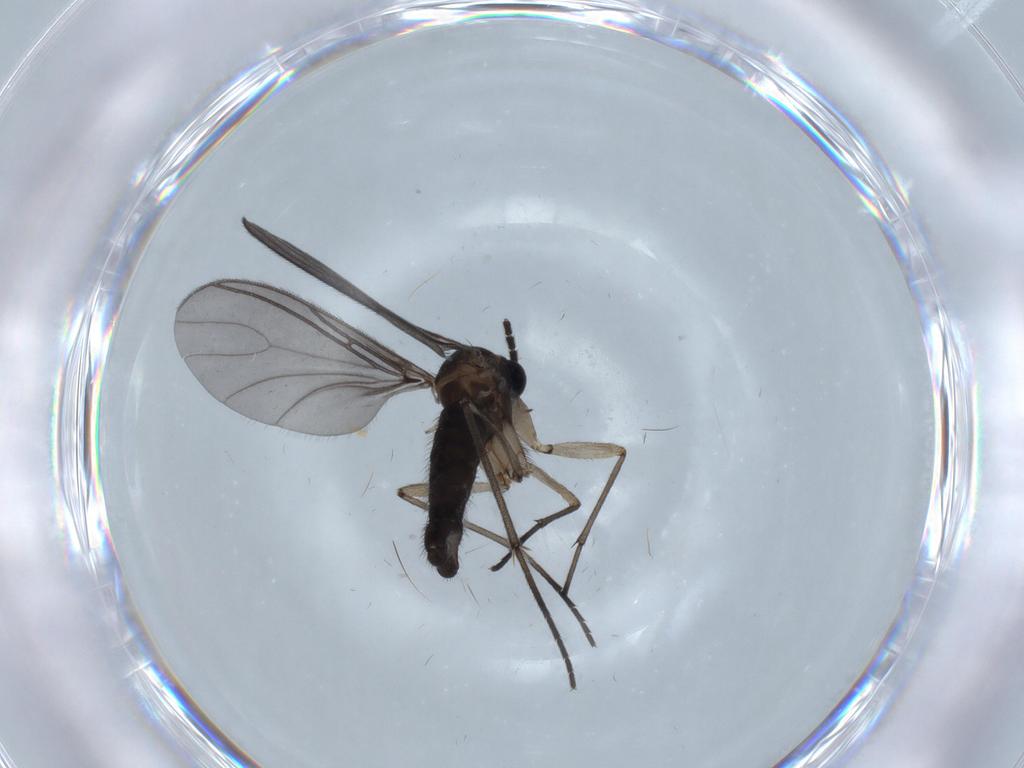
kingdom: Animalia
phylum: Arthropoda
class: Insecta
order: Diptera
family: Sciaridae
